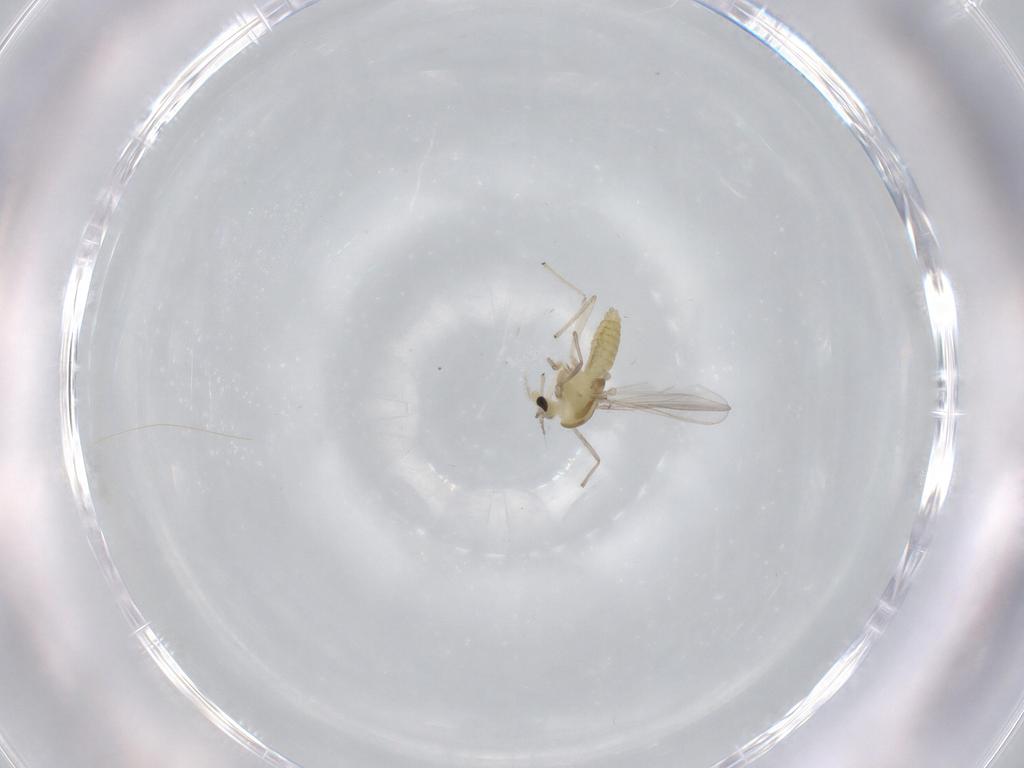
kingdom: Animalia
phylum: Arthropoda
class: Insecta
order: Diptera
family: Chironomidae
